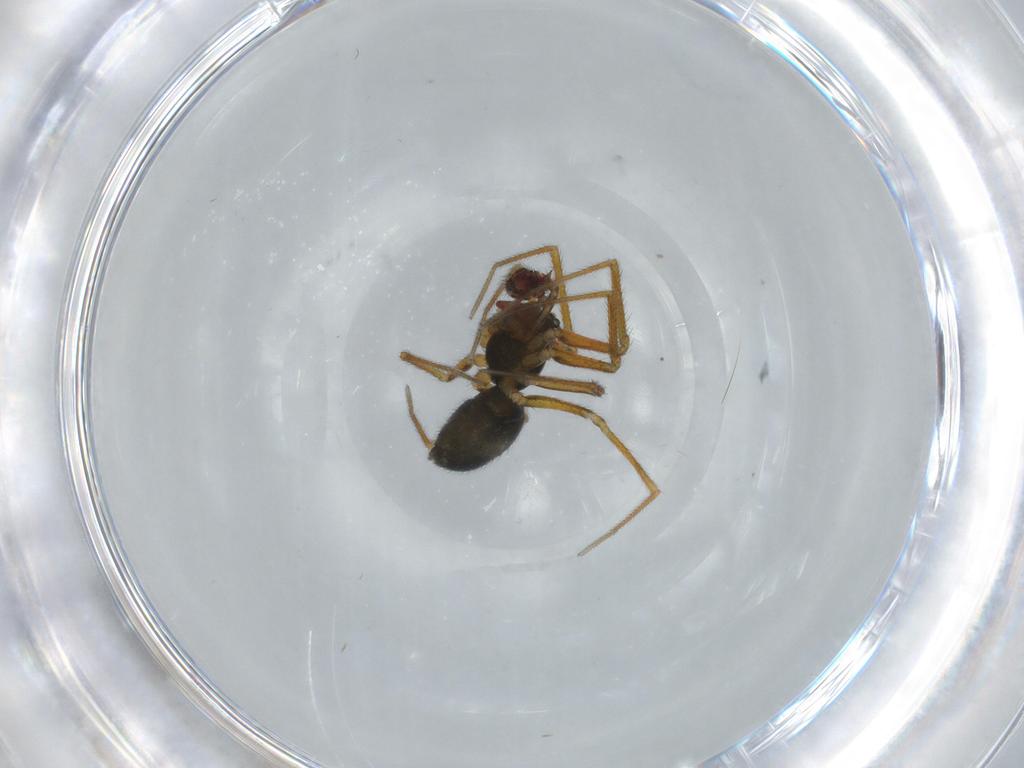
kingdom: Animalia
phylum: Arthropoda
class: Arachnida
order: Araneae
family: Linyphiidae
